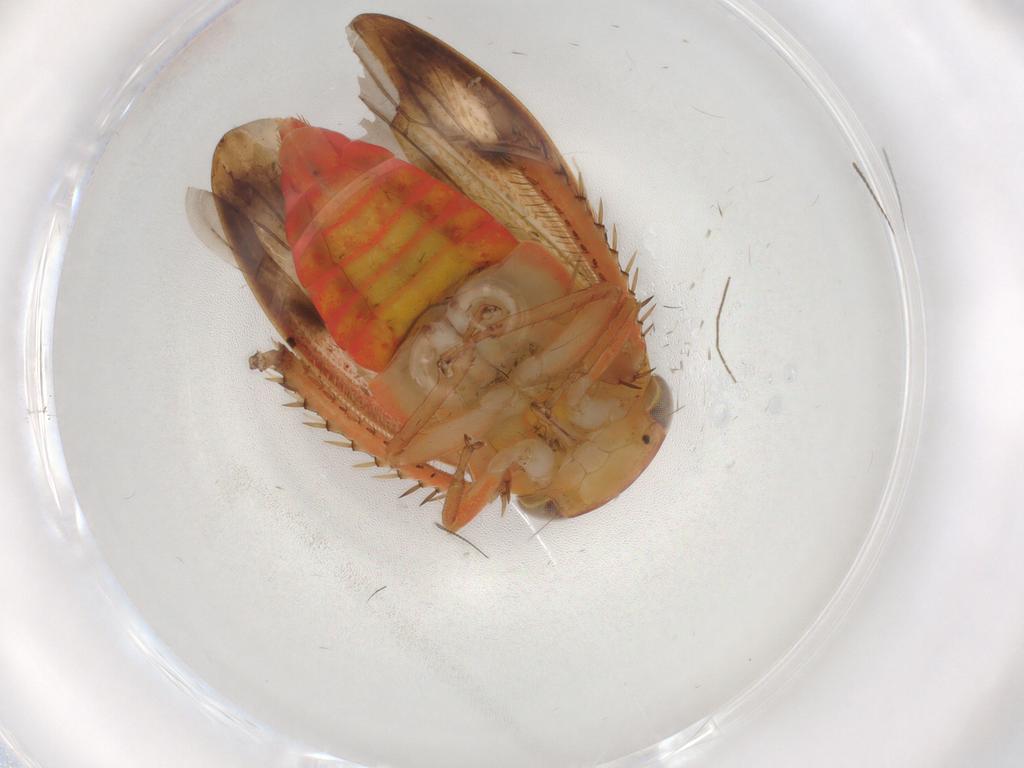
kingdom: Animalia
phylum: Arthropoda
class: Insecta
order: Hemiptera
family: Cicadellidae
